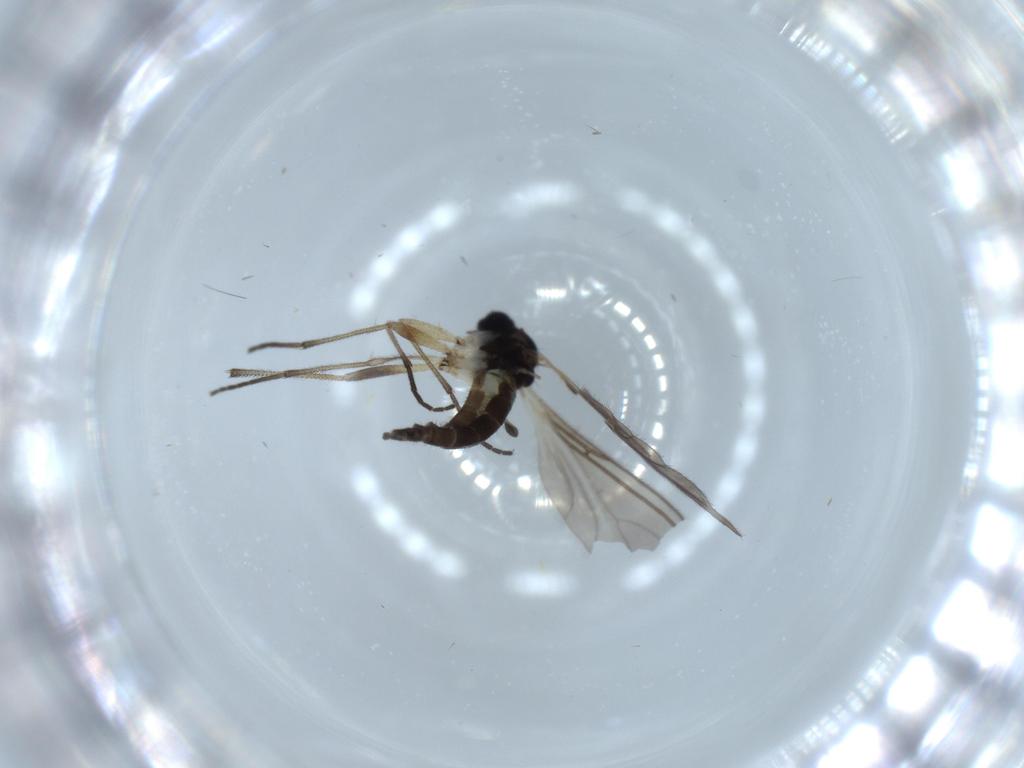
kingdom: Animalia
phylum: Arthropoda
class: Insecta
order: Diptera
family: Sciaridae
